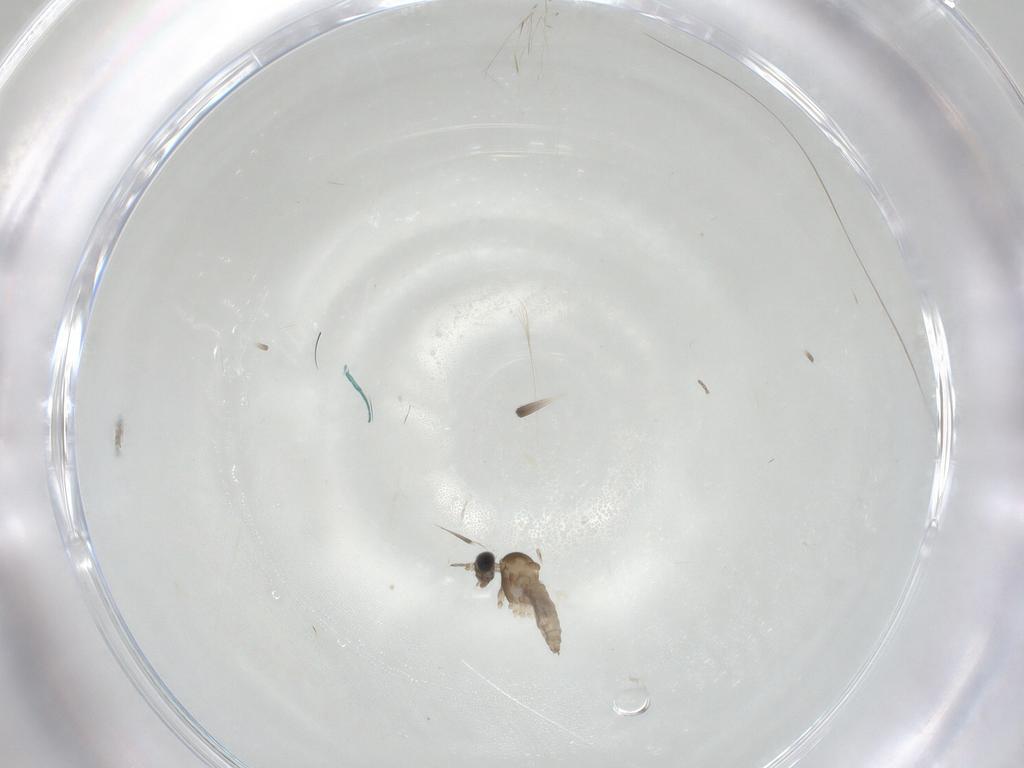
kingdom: Animalia
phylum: Arthropoda
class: Insecta
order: Diptera
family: Cecidomyiidae
